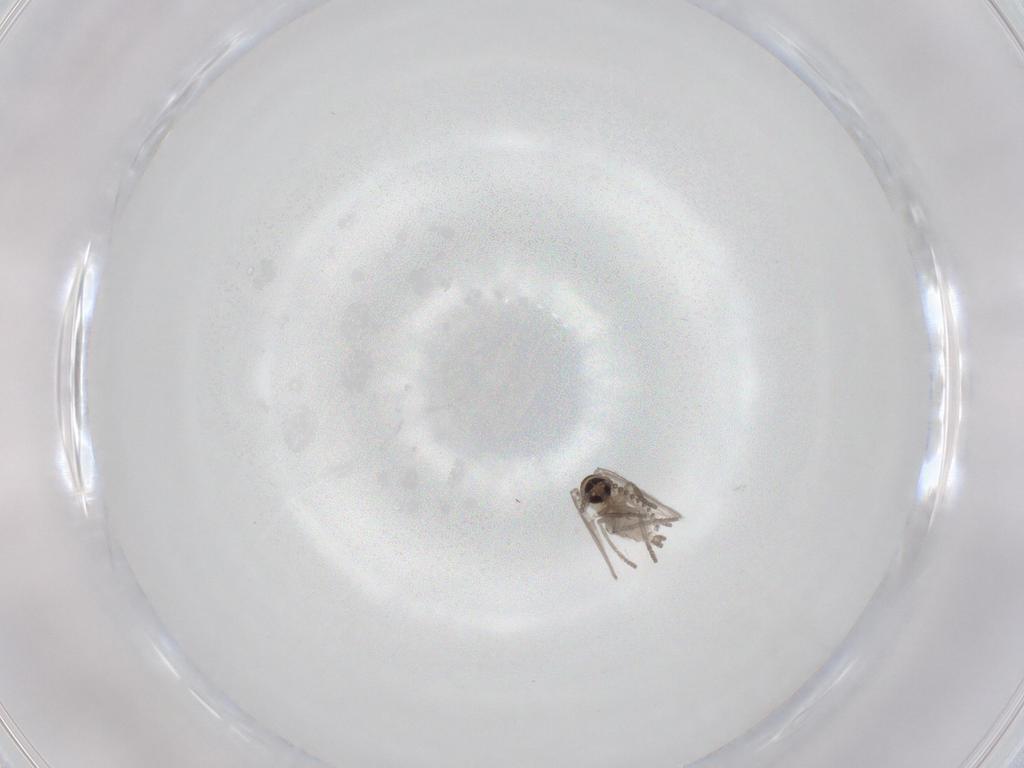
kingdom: Animalia
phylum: Arthropoda
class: Insecta
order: Diptera
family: Psychodidae
